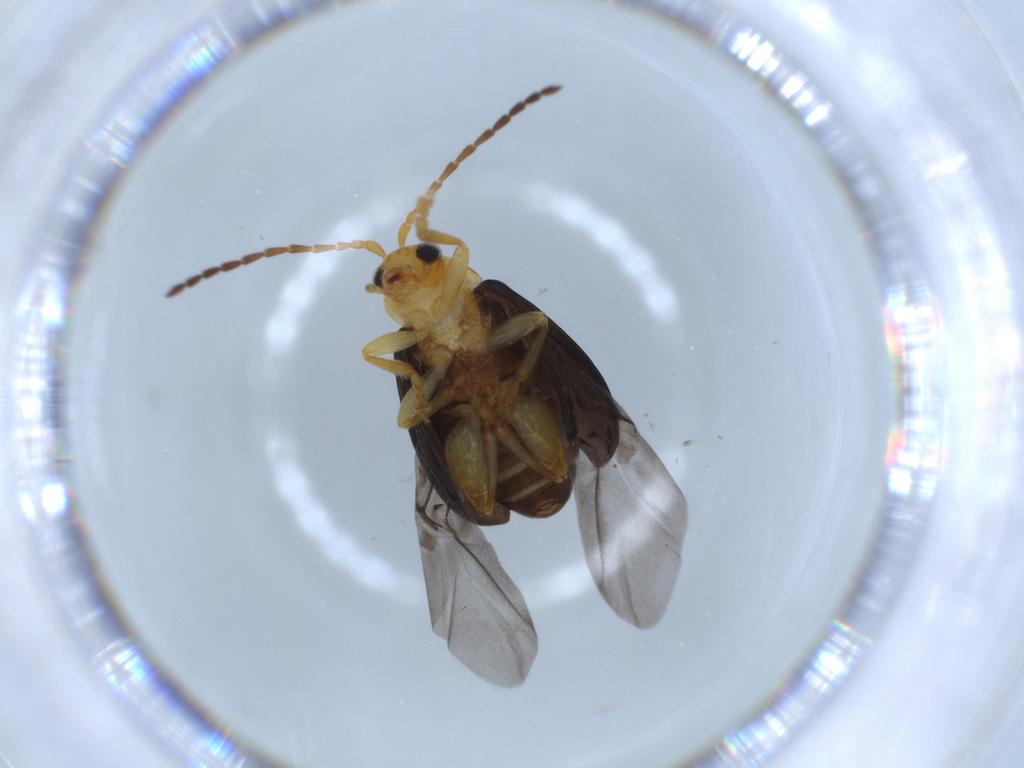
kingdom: Animalia
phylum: Arthropoda
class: Insecta
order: Coleoptera
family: Chrysomelidae
